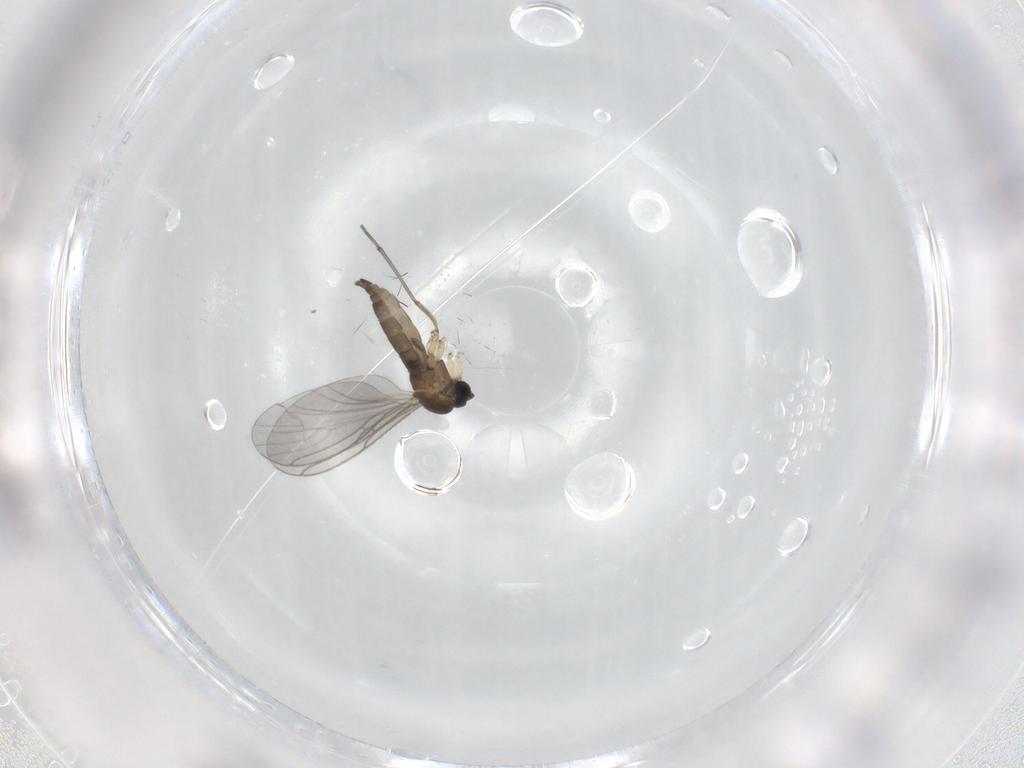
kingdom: Animalia
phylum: Arthropoda
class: Insecta
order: Diptera
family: Sciaridae
